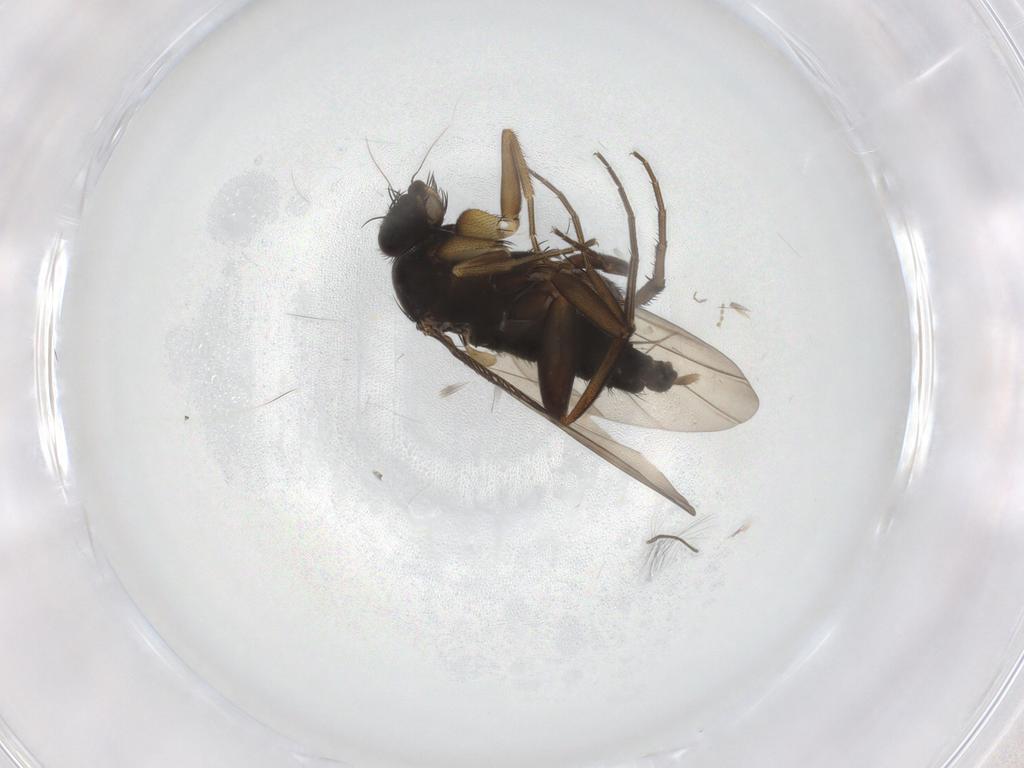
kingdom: Animalia
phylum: Arthropoda
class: Insecta
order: Diptera
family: Phoridae
